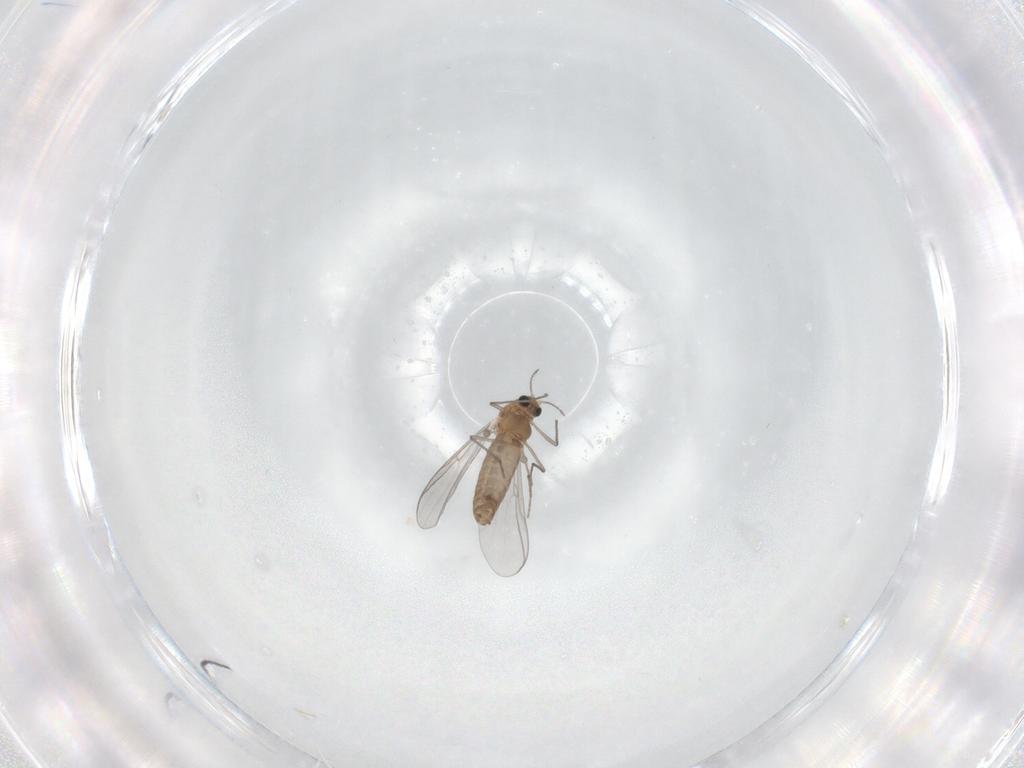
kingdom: Animalia
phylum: Arthropoda
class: Insecta
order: Diptera
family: Chironomidae
